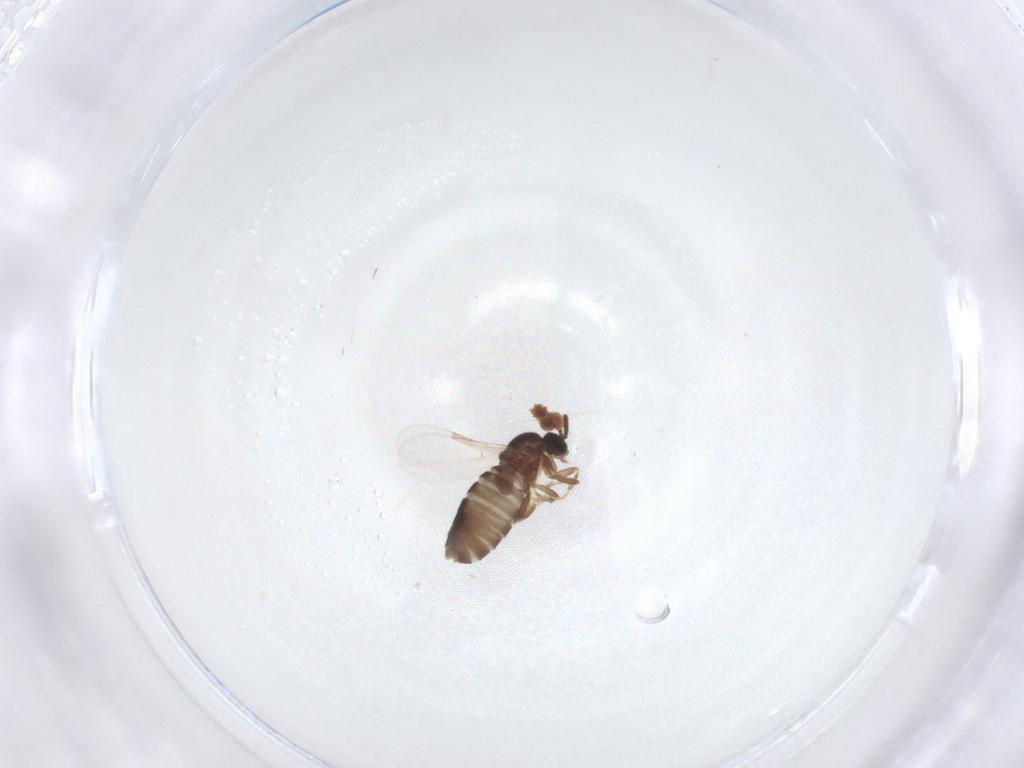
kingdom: Animalia
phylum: Arthropoda
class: Insecta
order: Diptera
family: Scatopsidae
